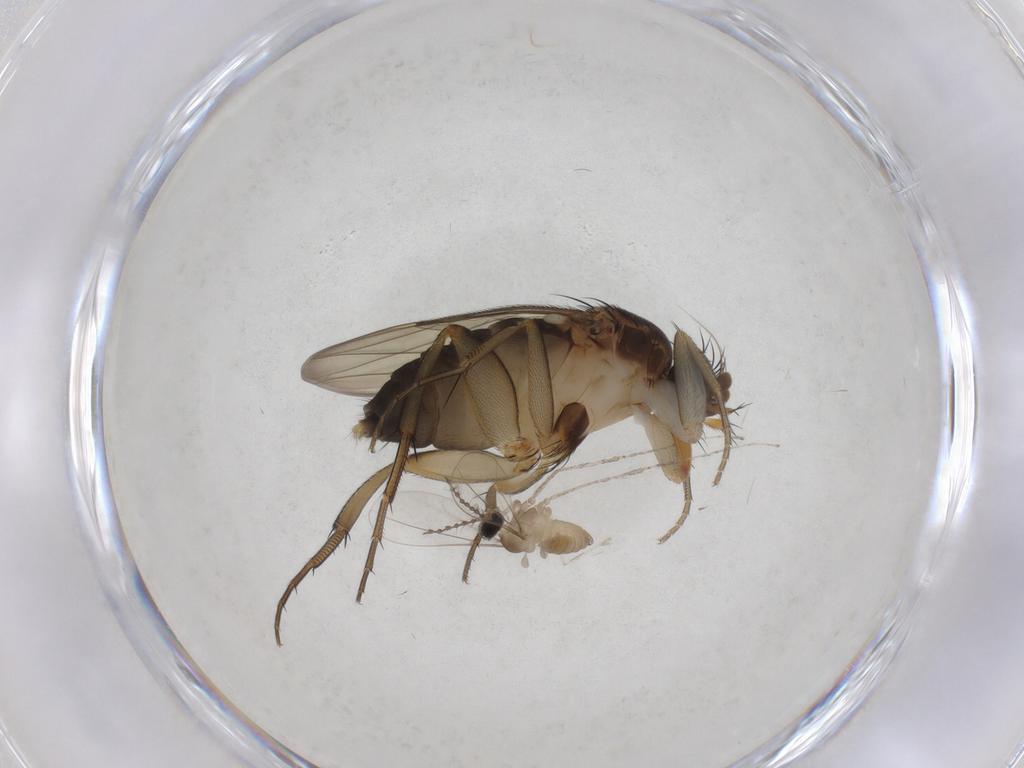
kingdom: Animalia
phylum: Arthropoda
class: Insecta
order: Diptera
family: Cecidomyiidae
